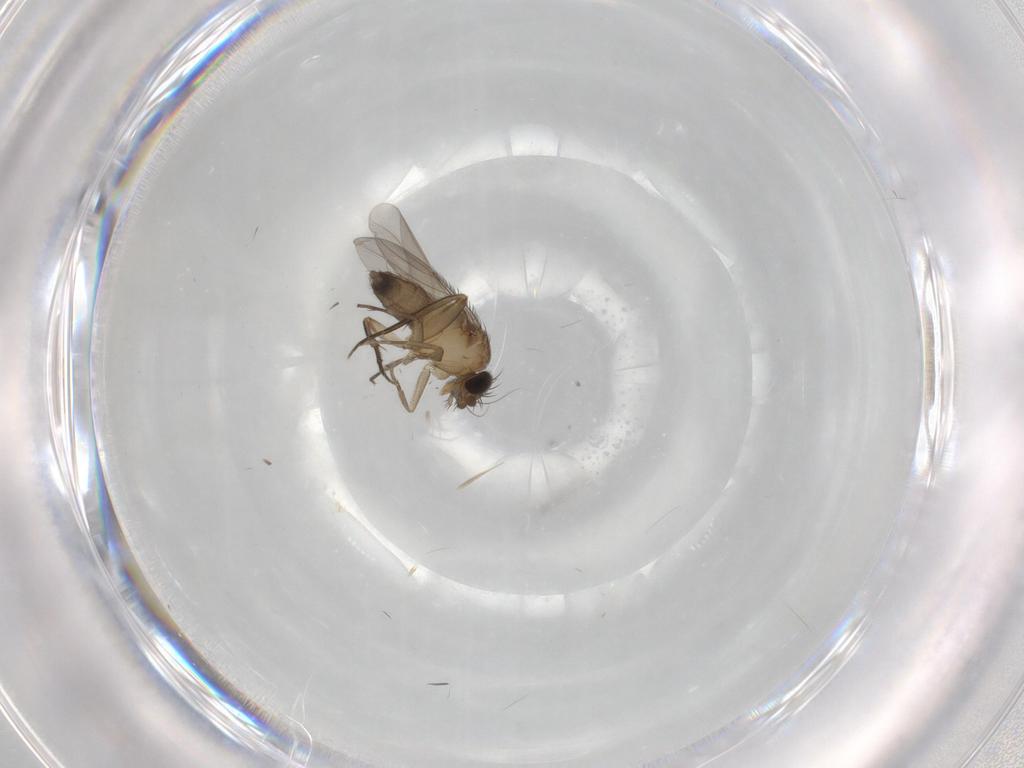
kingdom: Animalia
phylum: Arthropoda
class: Insecta
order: Diptera
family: Phoridae
